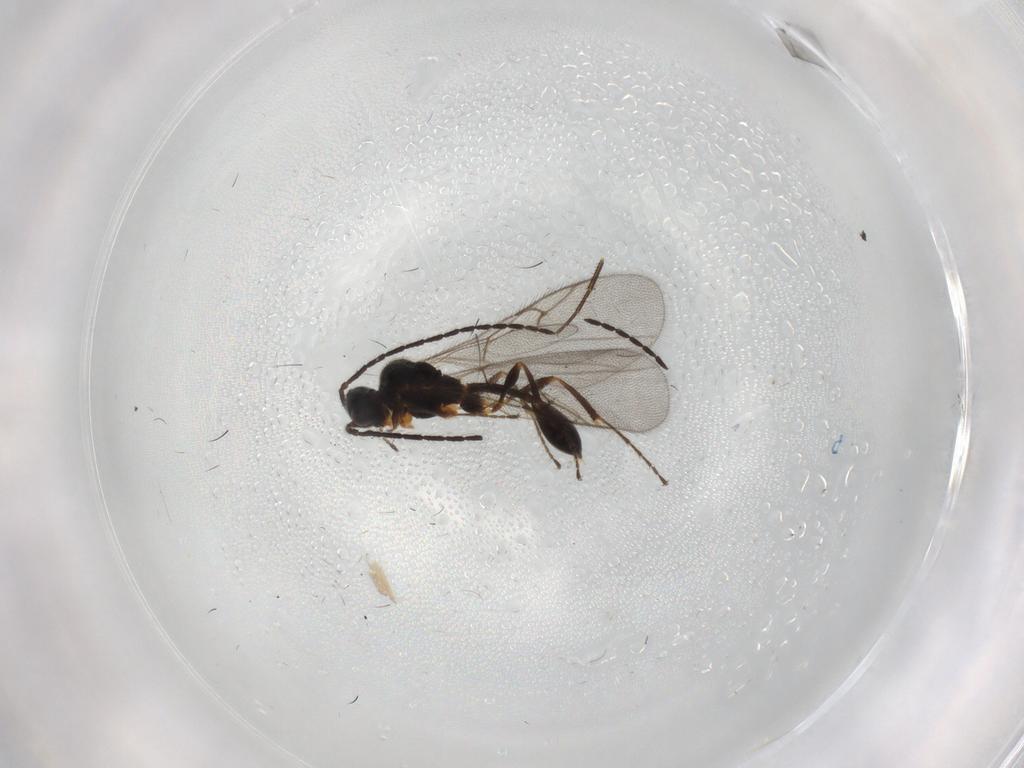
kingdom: Animalia
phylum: Arthropoda
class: Insecta
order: Hymenoptera
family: Diapriidae
